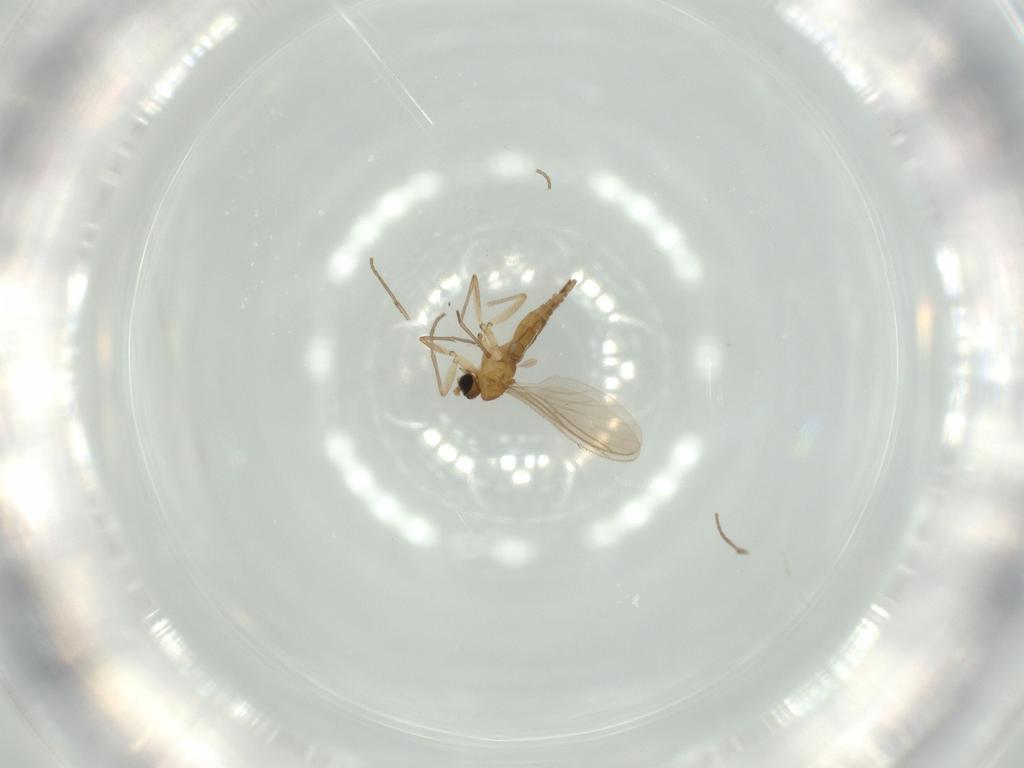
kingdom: Animalia
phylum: Arthropoda
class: Insecta
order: Diptera
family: Sciaridae
